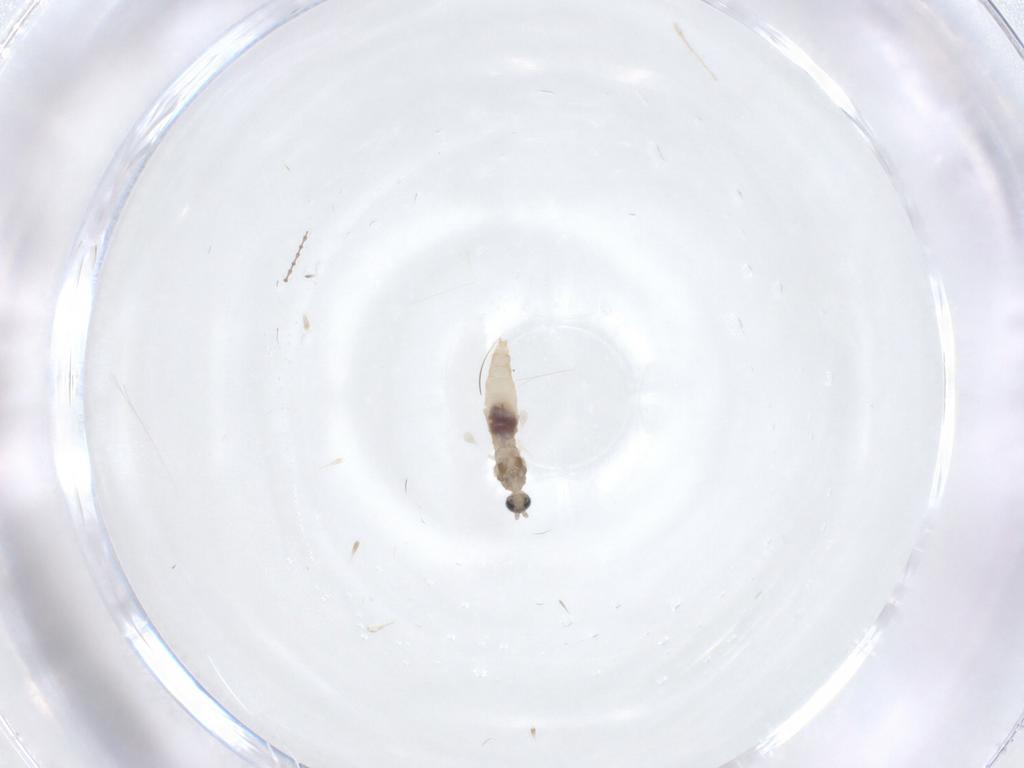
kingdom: Animalia
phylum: Arthropoda
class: Insecta
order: Diptera
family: Cecidomyiidae
